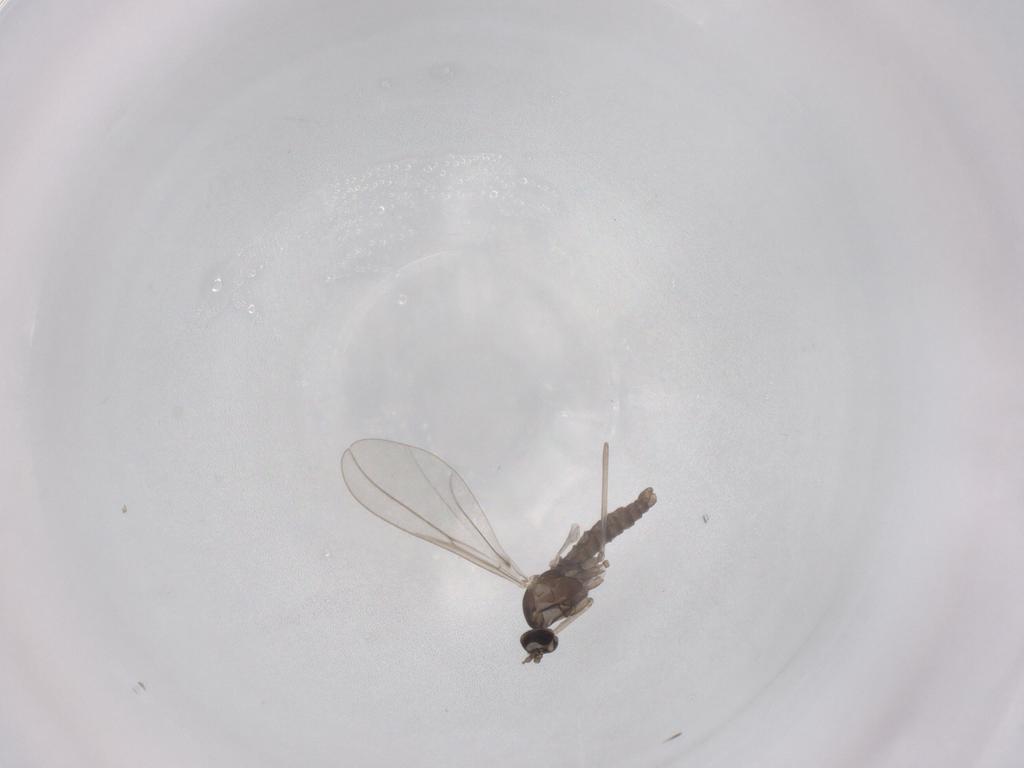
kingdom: Animalia
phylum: Arthropoda
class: Insecta
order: Diptera
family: Cecidomyiidae
